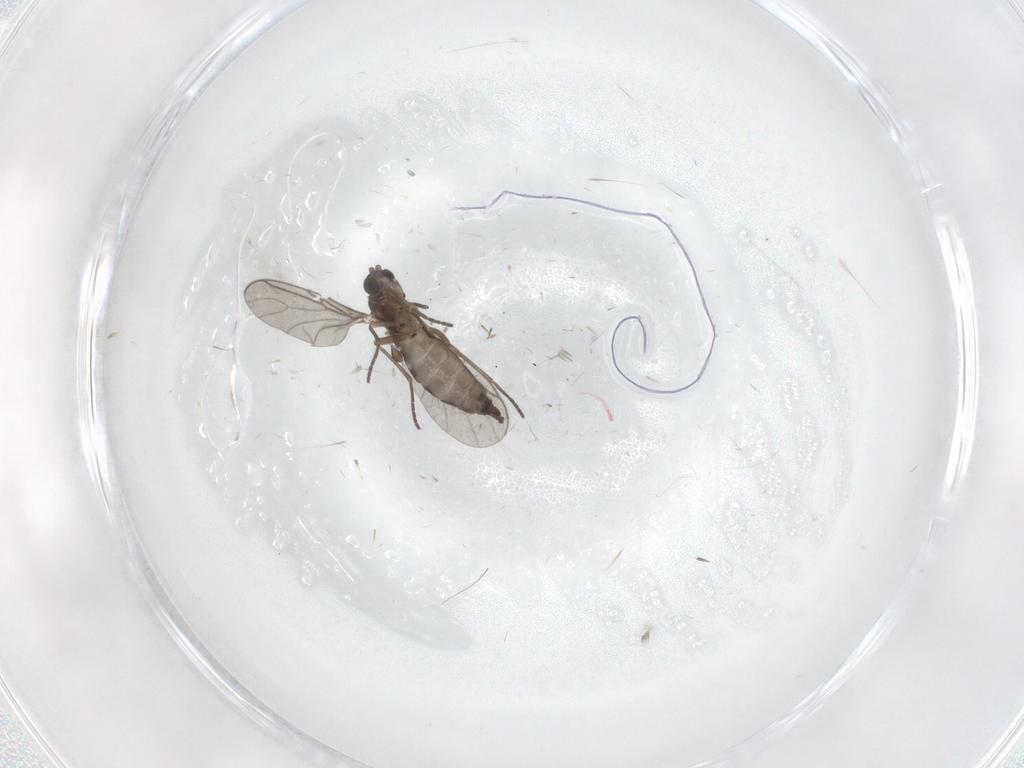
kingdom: Animalia
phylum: Arthropoda
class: Insecta
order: Diptera
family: Sciaridae
